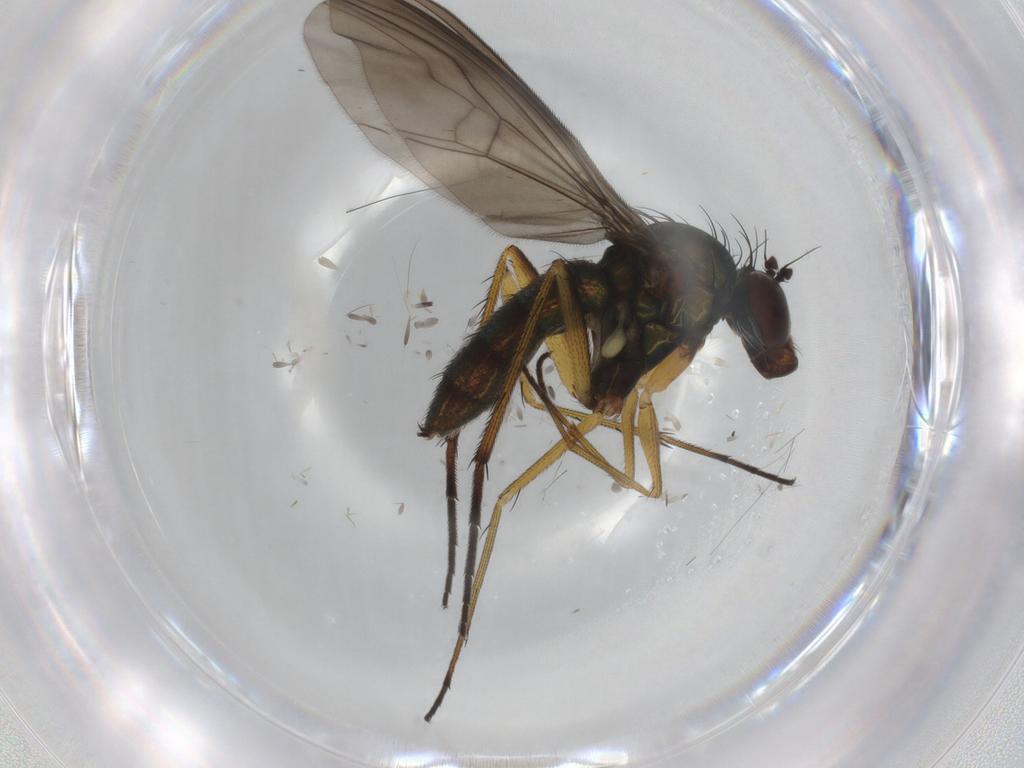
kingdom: Animalia
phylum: Arthropoda
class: Insecta
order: Diptera
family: Dolichopodidae
